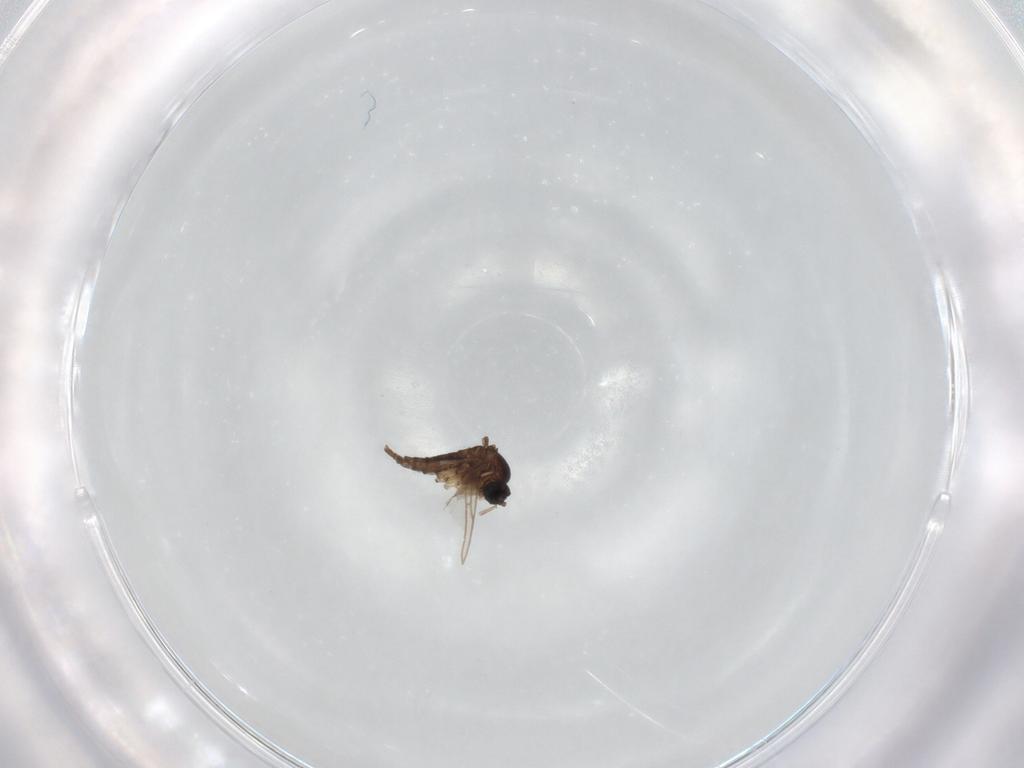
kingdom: Animalia
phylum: Arthropoda
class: Insecta
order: Diptera
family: Sciaridae
